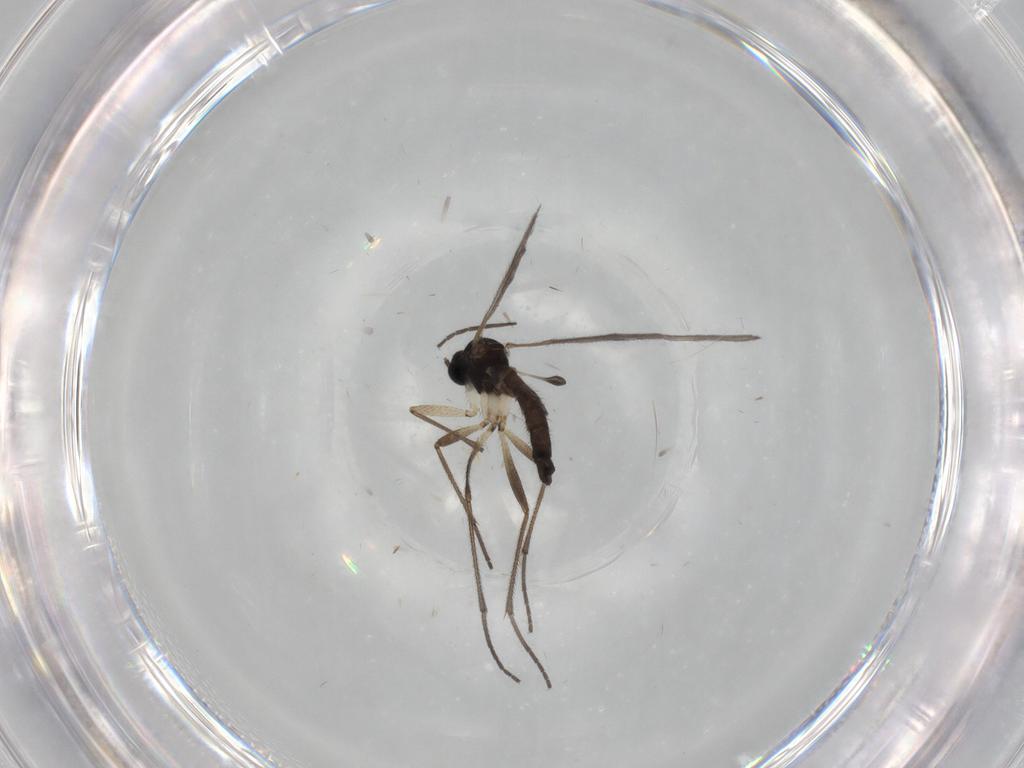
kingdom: Animalia
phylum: Arthropoda
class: Insecta
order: Diptera
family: Sciaridae
